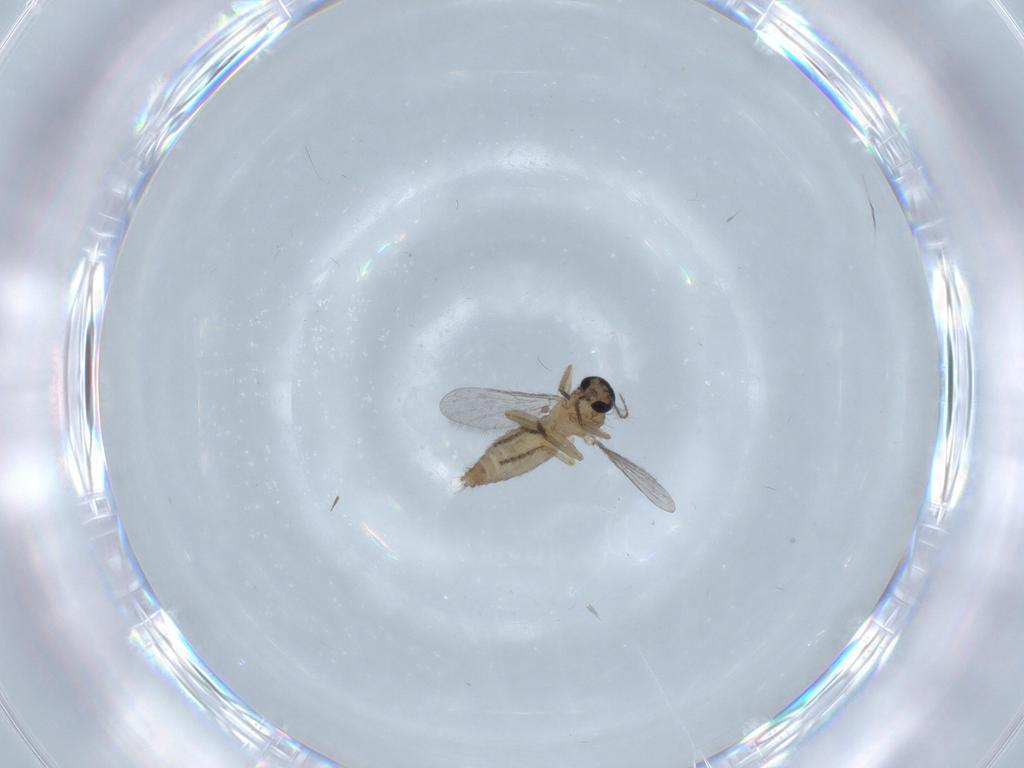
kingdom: Animalia
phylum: Arthropoda
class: Insecta
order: Diptera
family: Ceratopogonidae
